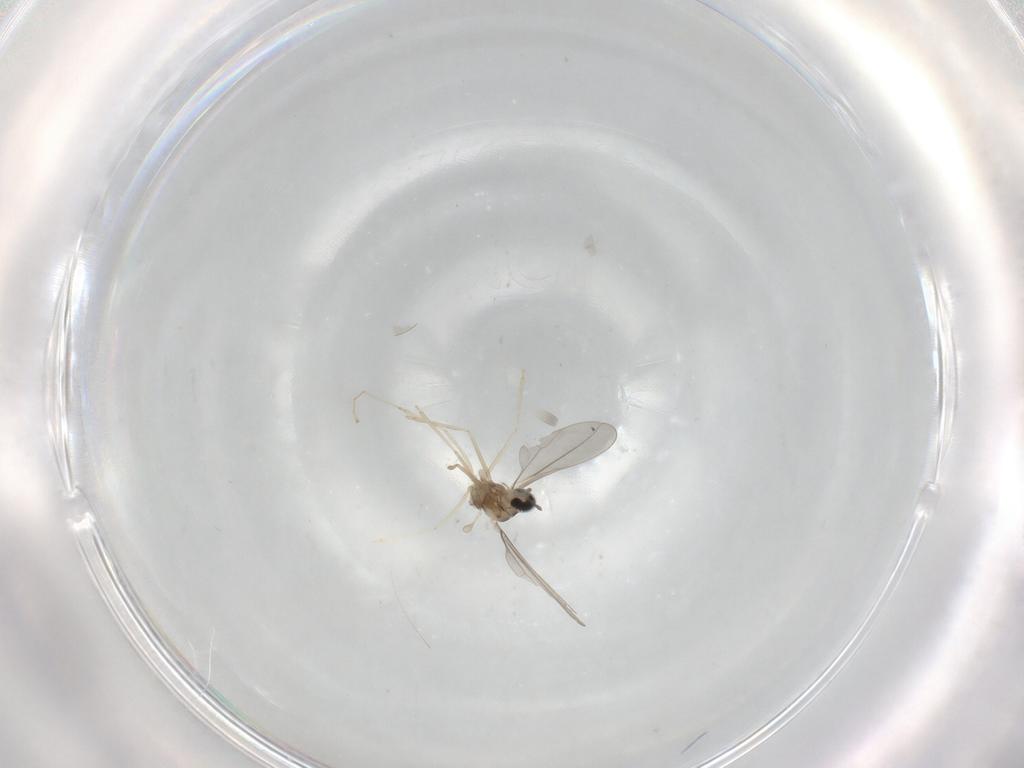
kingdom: Animalia
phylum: Arthropoda
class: Insecta
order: Diptera
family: Cecidomyiidae
